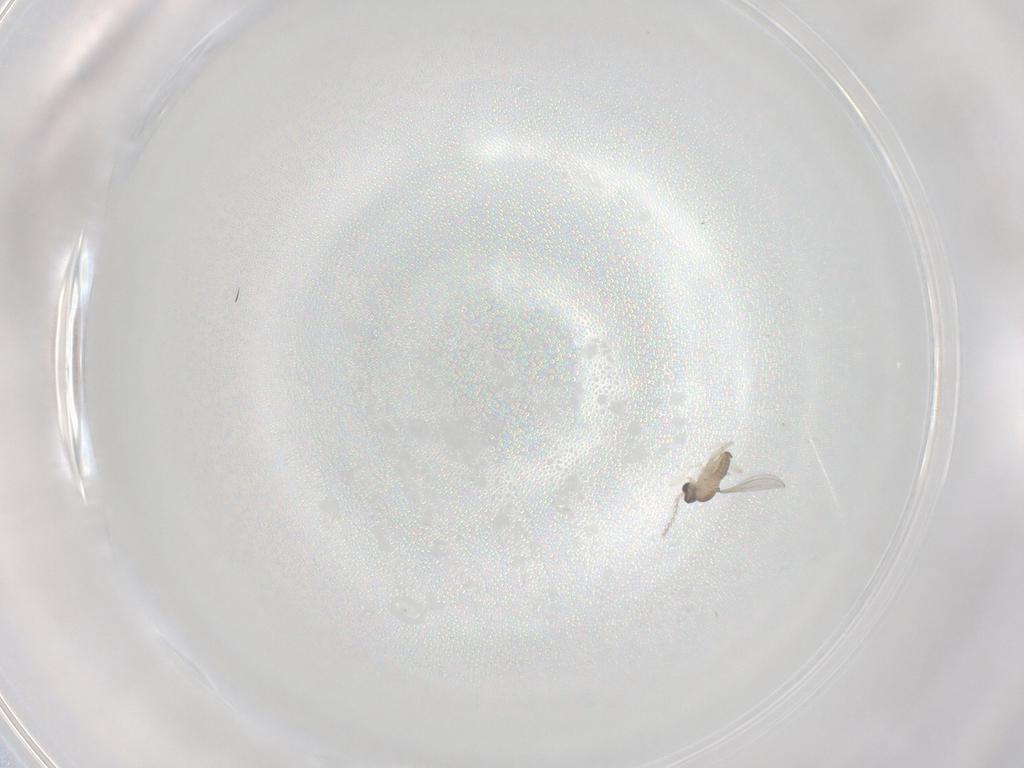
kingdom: Animalia
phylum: Arthropoda
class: Insecta
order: Diptera
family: Cecidomyiidae
